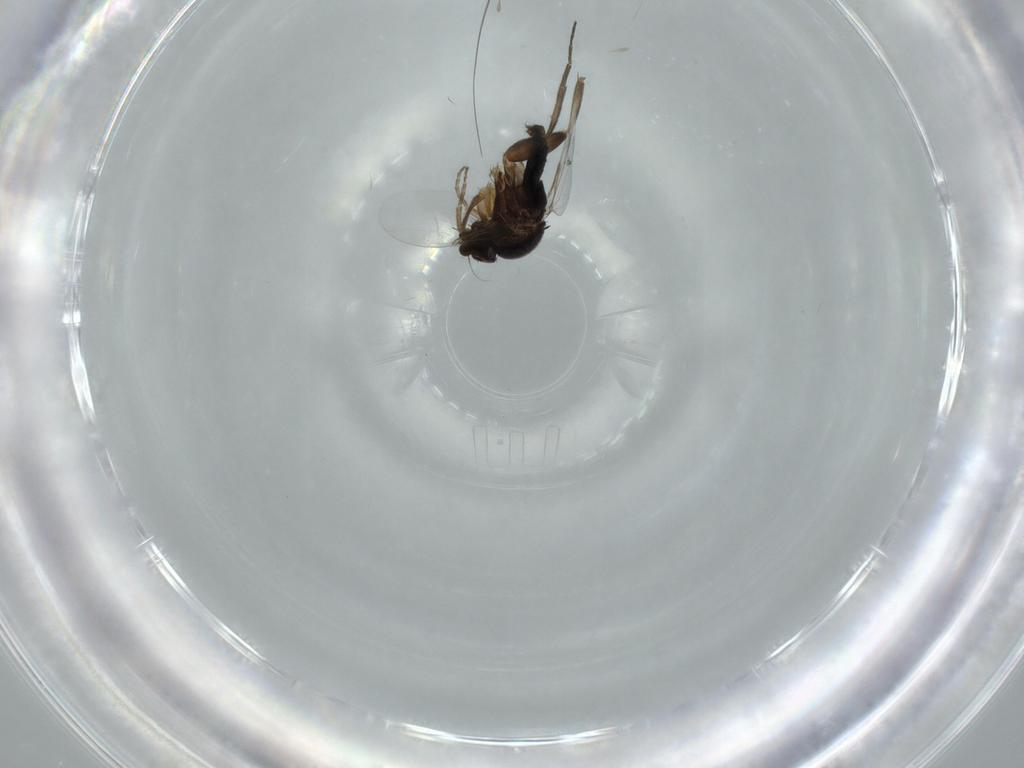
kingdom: Animalia
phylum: Arthropoda
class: Insecta
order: Diptera
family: Phoridae
